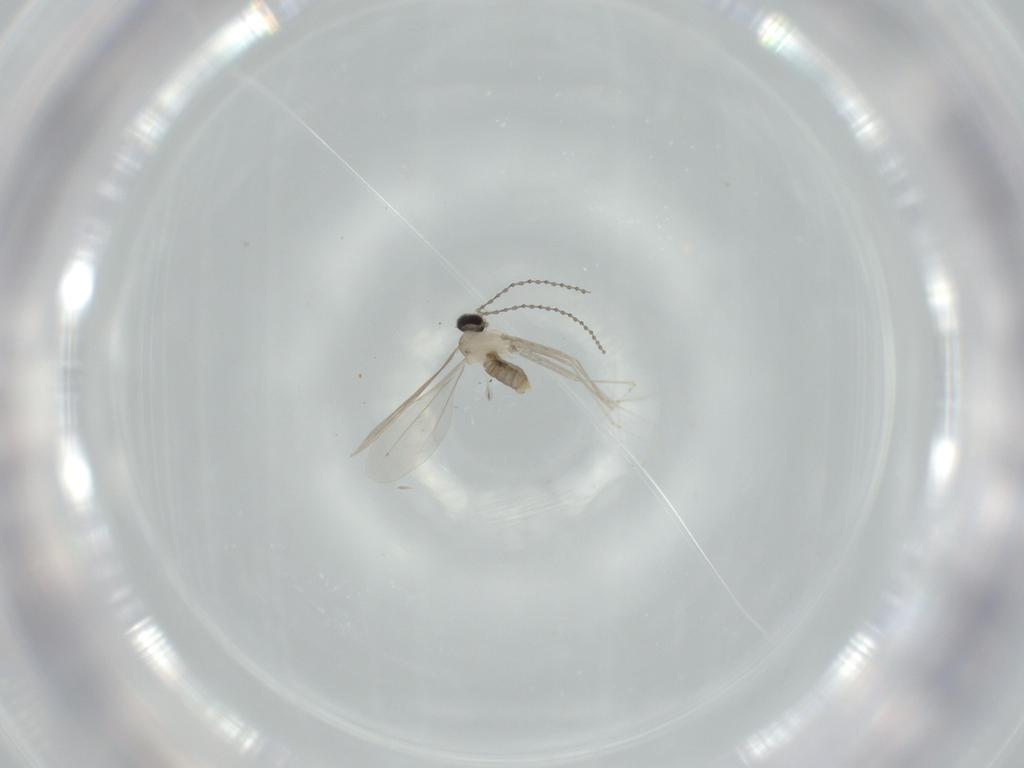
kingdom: Animalia
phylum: Arthropoda
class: Insecta
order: Diptera
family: Cecidomyiidae
